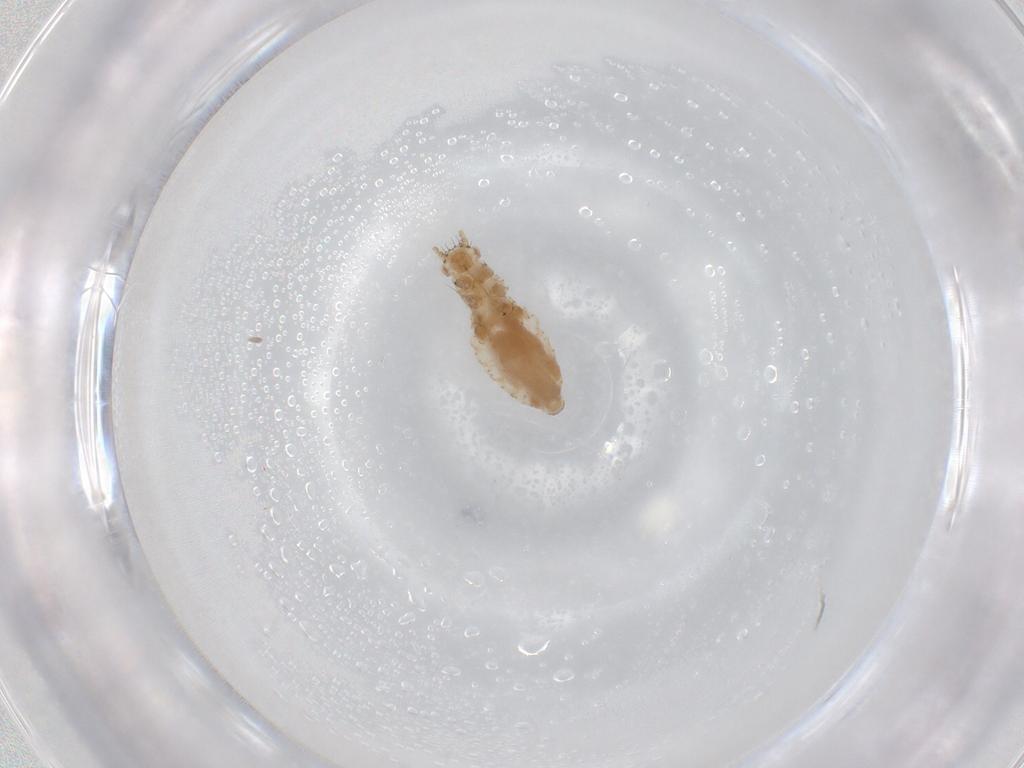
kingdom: Animalia
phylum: Arthropoda
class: Insecta
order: Hemiptera
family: Aphididae
